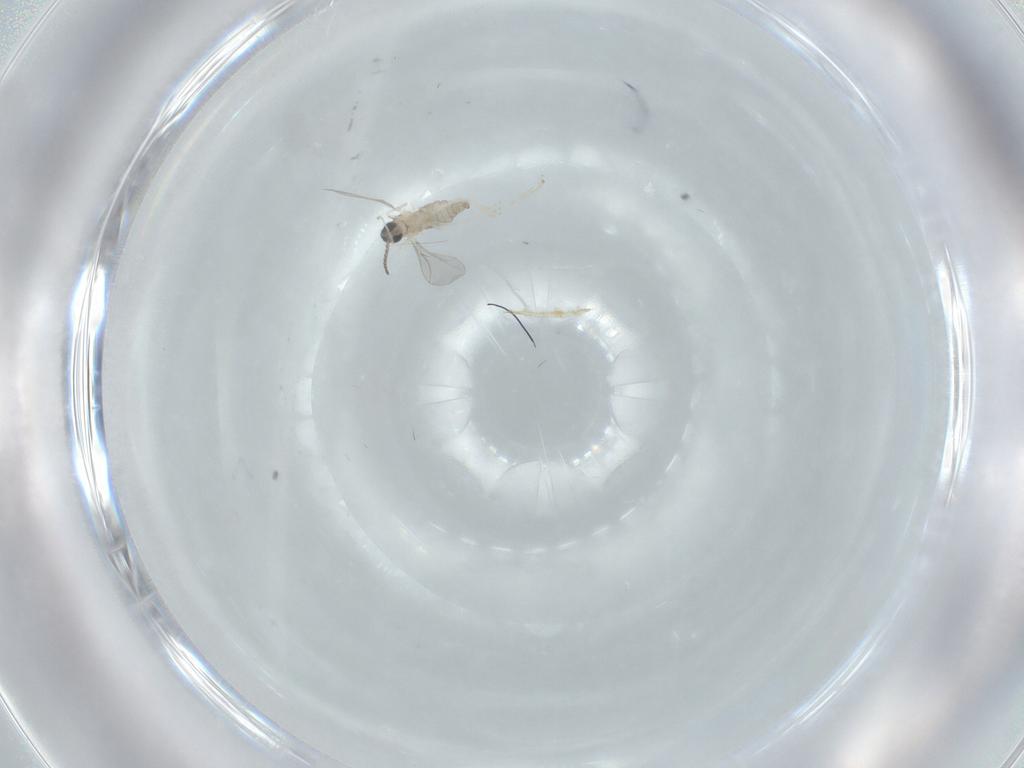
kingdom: Animalia
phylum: Arthropoda
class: Insecta
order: Diptera
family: Cecidomyiidae
